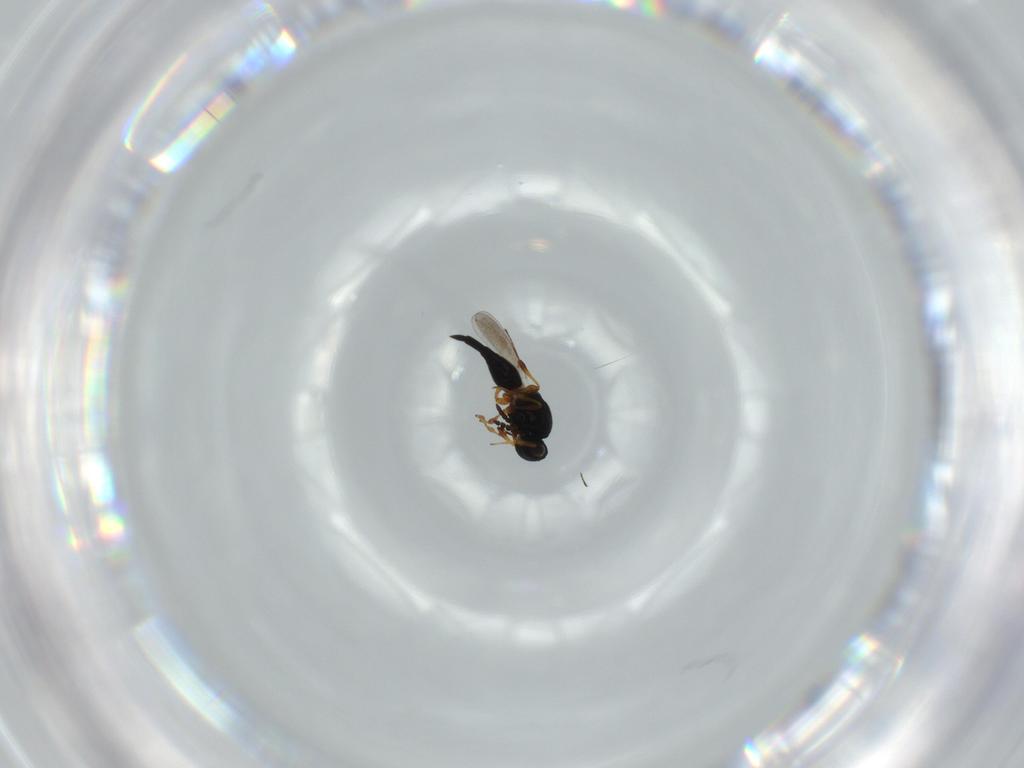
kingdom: Animalia
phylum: Arthropoda
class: Insecta
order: Hymenoptera
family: Platygastridae
